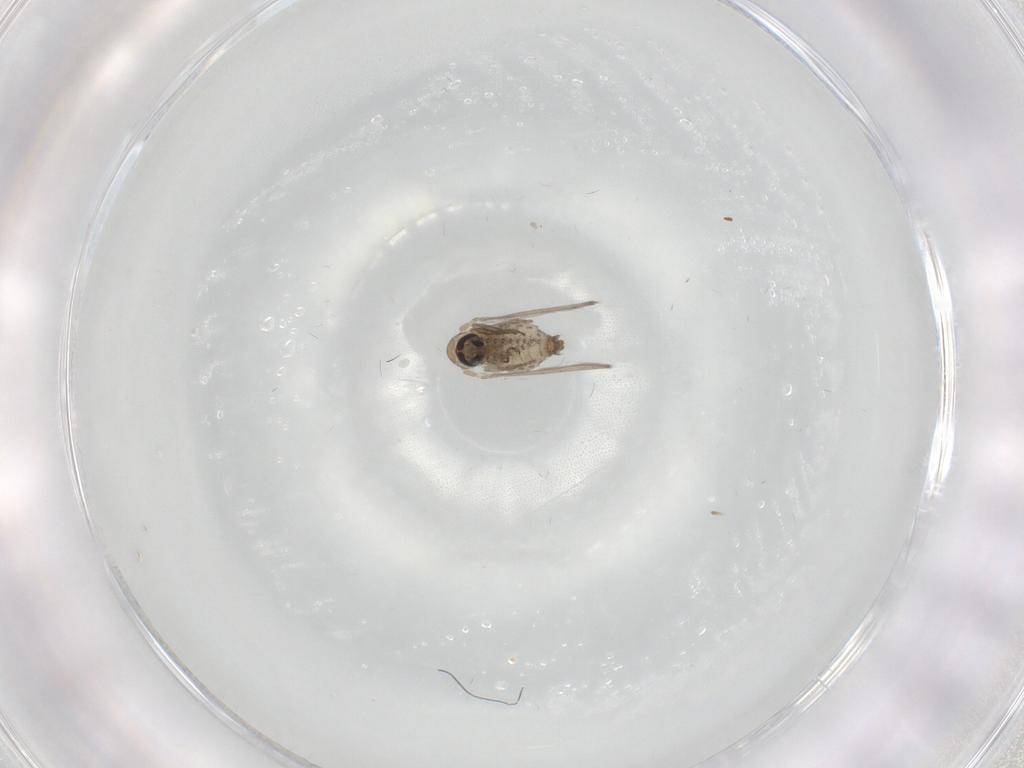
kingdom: Animalia
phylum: Arthropoda
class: Insecta
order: Diptera
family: Psychodidae
